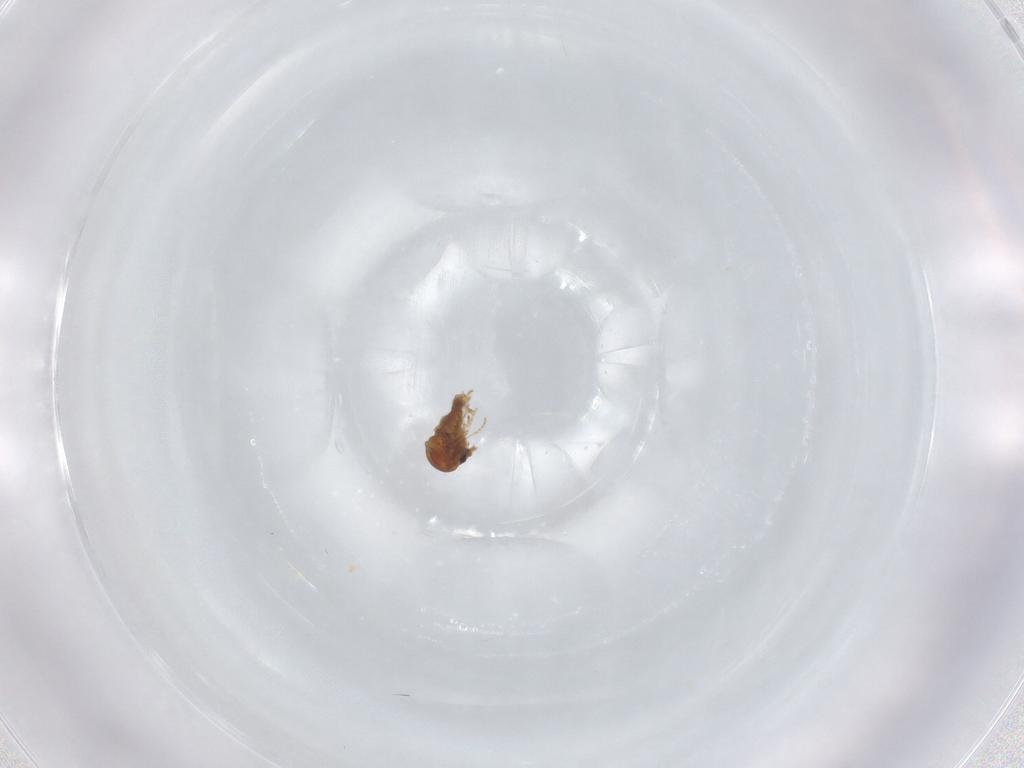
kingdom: Animalia
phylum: Arthropoda
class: Insecta
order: Diptera
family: Ceratopogonidae
